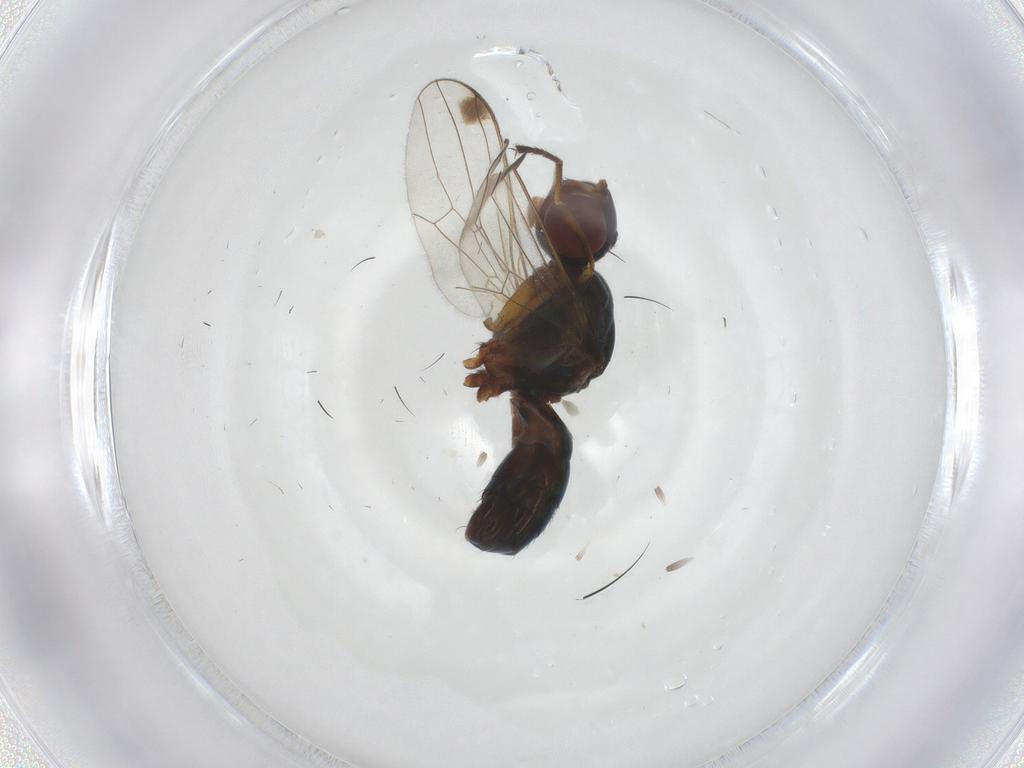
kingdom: Animalia
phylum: Arthropoda
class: Insecta
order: Diptera
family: Sepsidae
